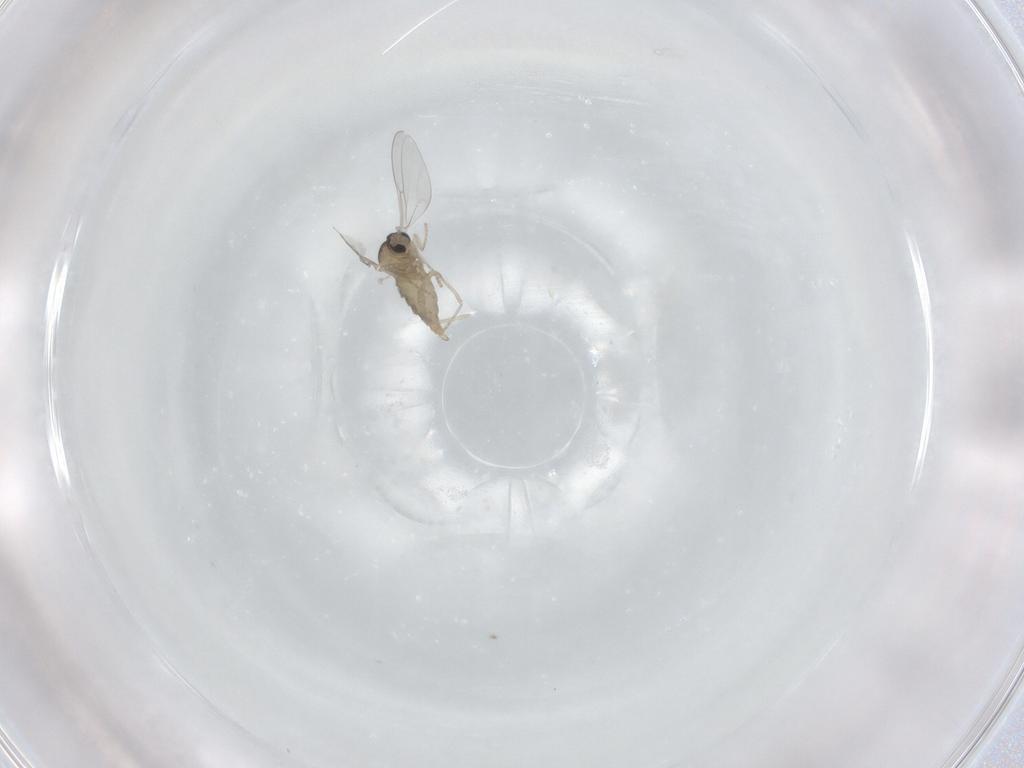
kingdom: Animalia
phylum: Arthropoda
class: Insecta
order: Diptera
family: Cecidomyiidae
